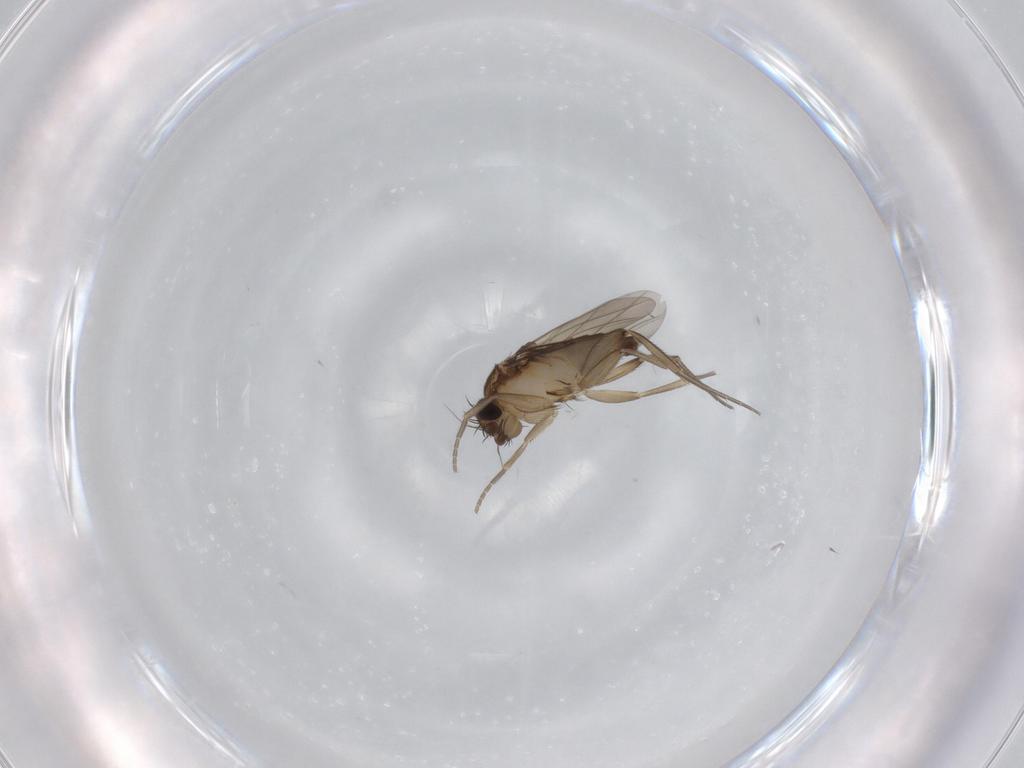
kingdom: Animalia
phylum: Arthropoda
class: Insecta
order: Diptera
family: Phoridae
